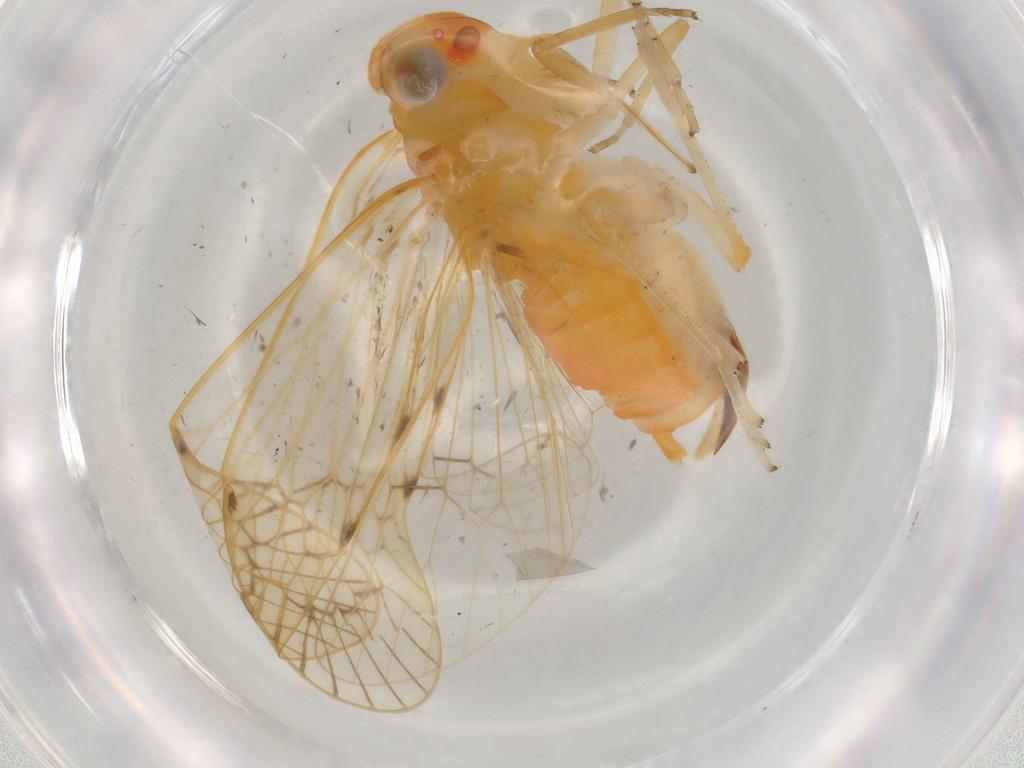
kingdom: Animalia
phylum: Arthropoda
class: Insecta
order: Hemiptera
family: Cixiidae
